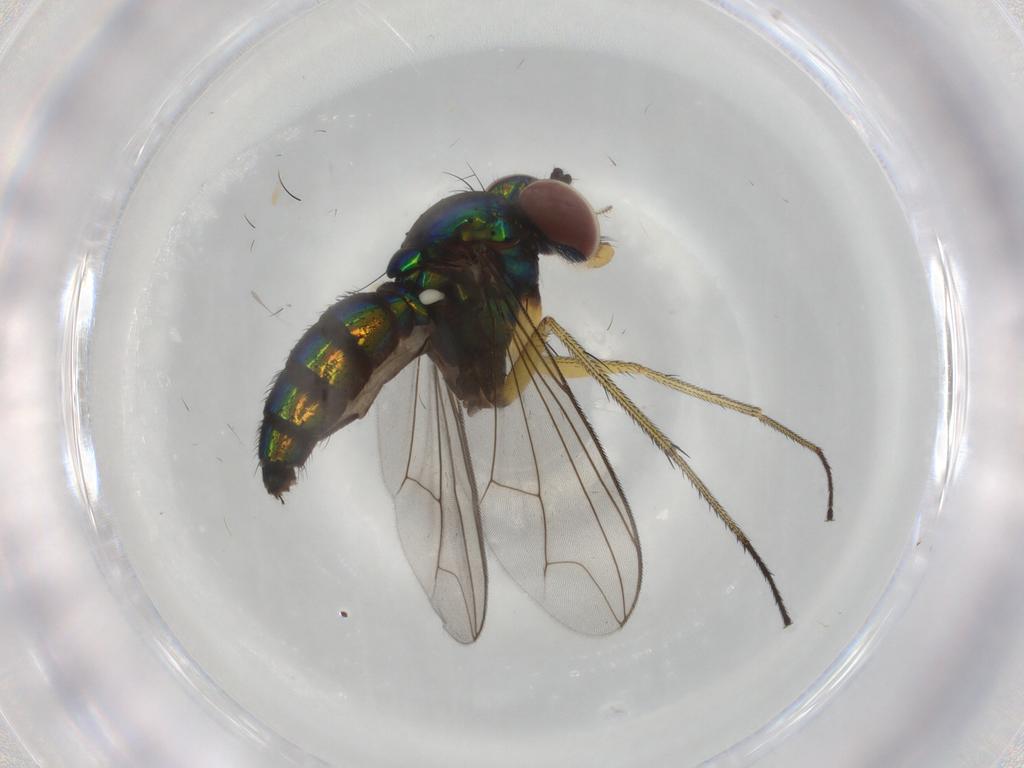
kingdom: Animalia
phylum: Arthropoda
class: Insecta
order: Diptera
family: Dolichopodidae
